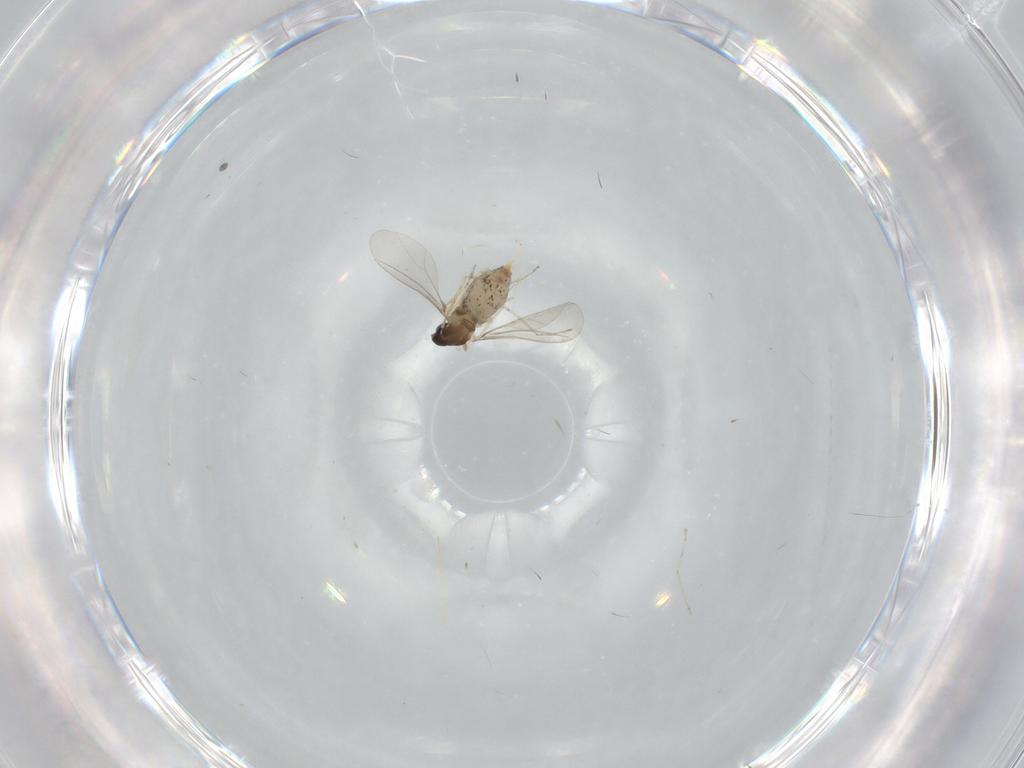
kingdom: Animalia
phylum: Arthropoda
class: Insecta
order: Diptera
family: Cecidomyiidae
